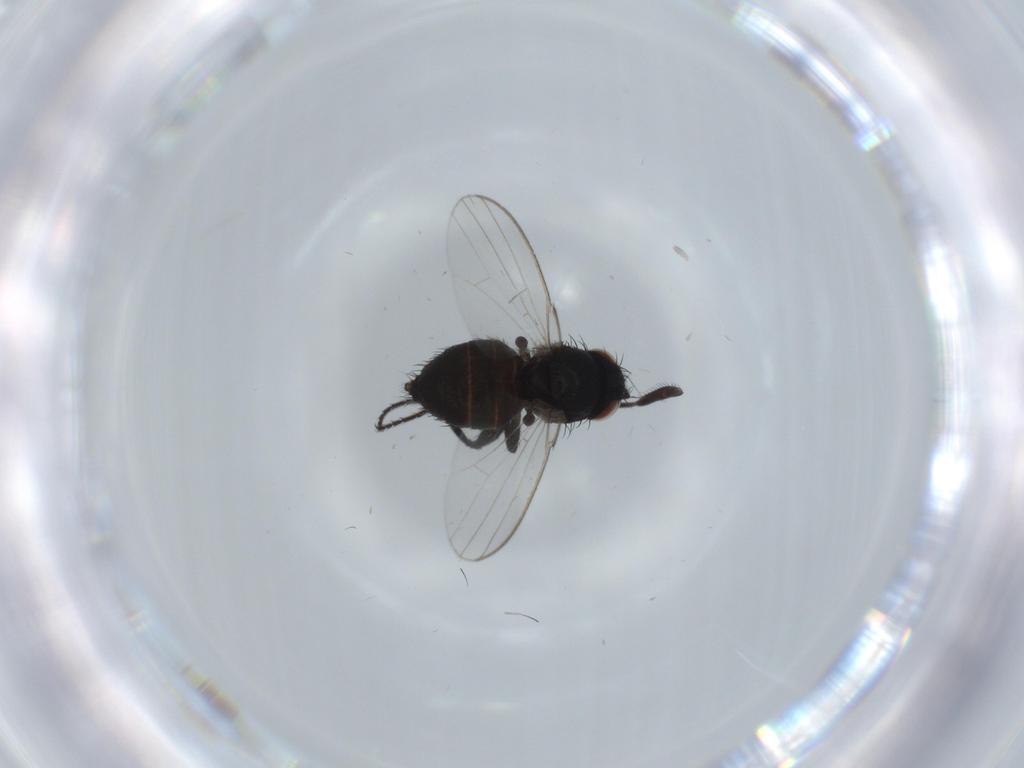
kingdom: Animalia
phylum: Arthropoda
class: Insecta
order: Diptera
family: Milichiidae
